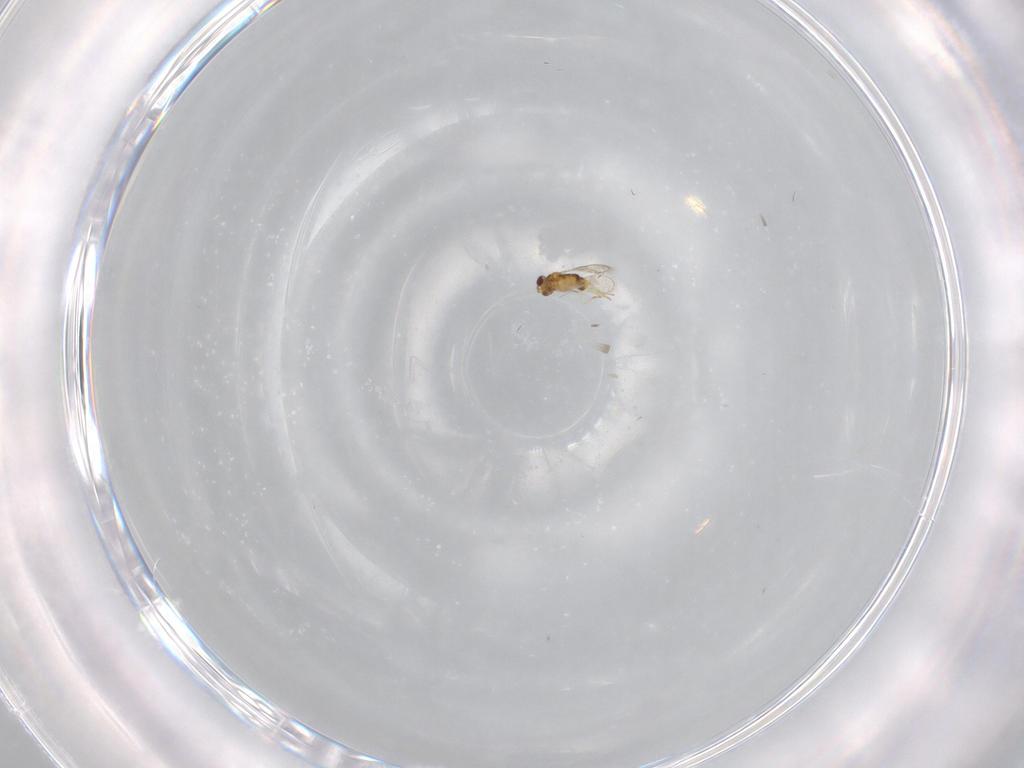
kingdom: Animalia
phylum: Arthropoda
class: Insecta
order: Hymenoptera
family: Aphelinidae
